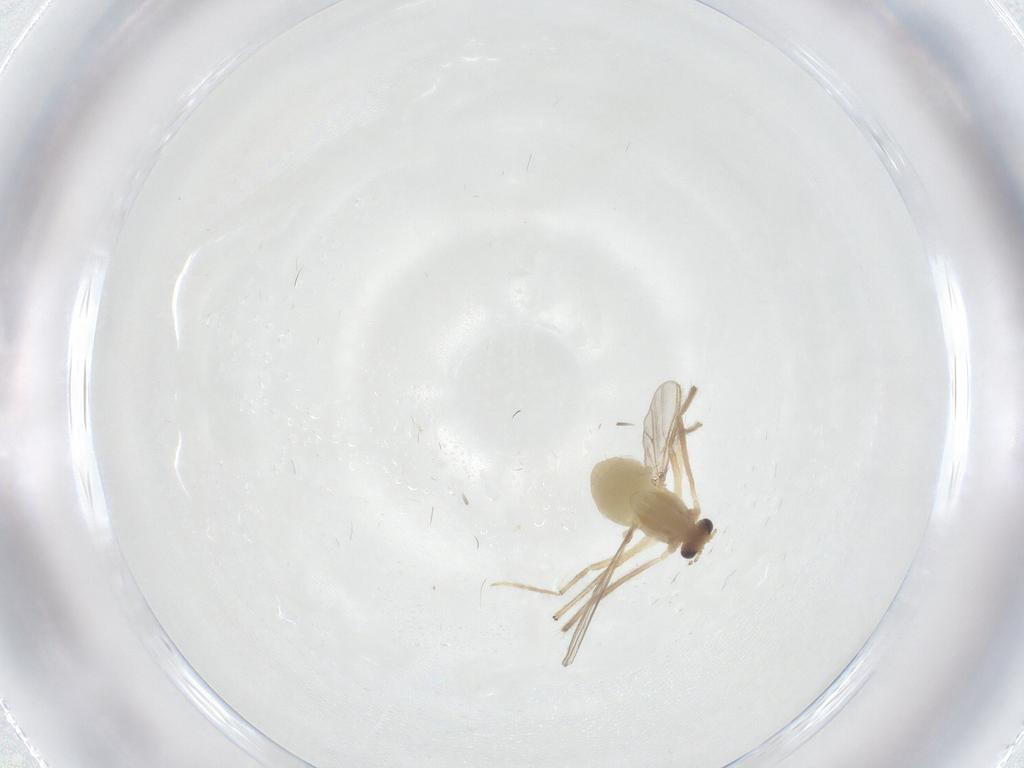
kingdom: Animalia
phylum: Arthropoda
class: Insecta
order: Diptera
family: Chironomidae
